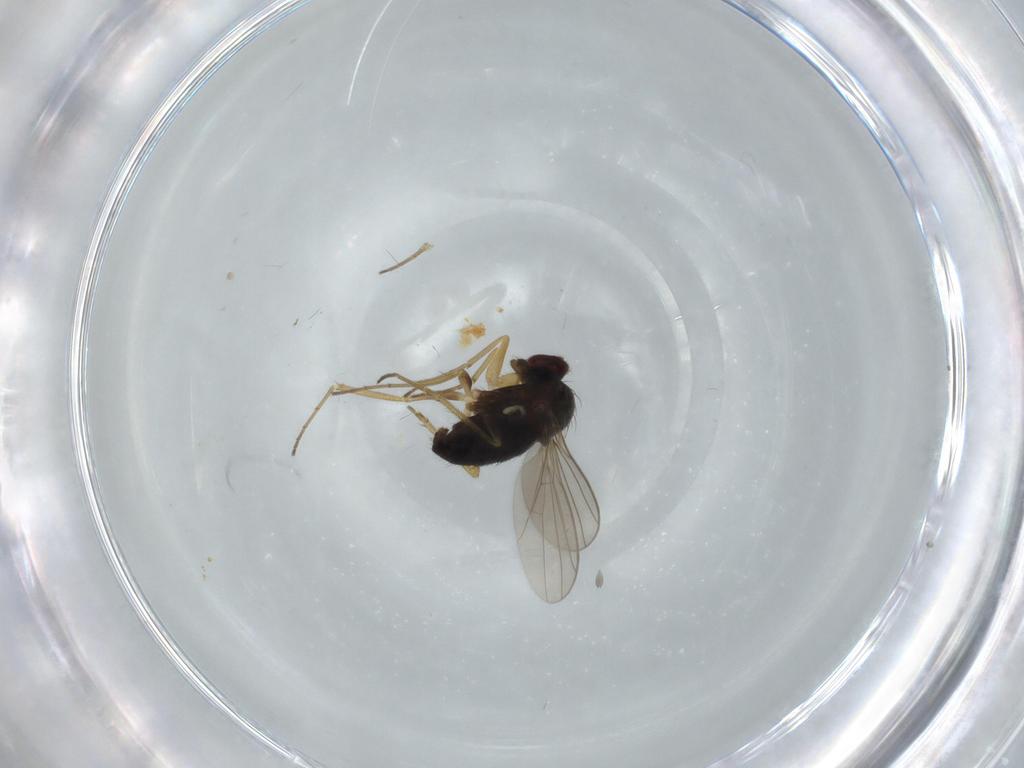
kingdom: Animalia
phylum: Arthropoda
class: Insecta
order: Diptera
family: Dolichopodidae
